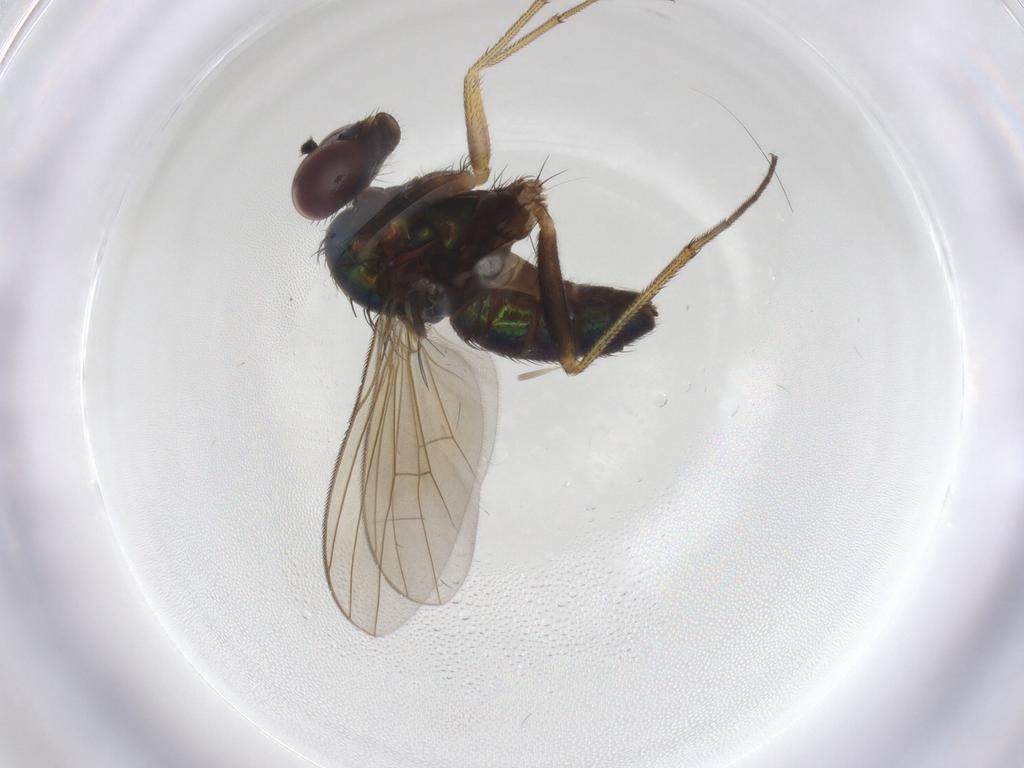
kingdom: Animalia
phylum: Arthropoda
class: Insecta
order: Diptera
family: Dolichopodidae
